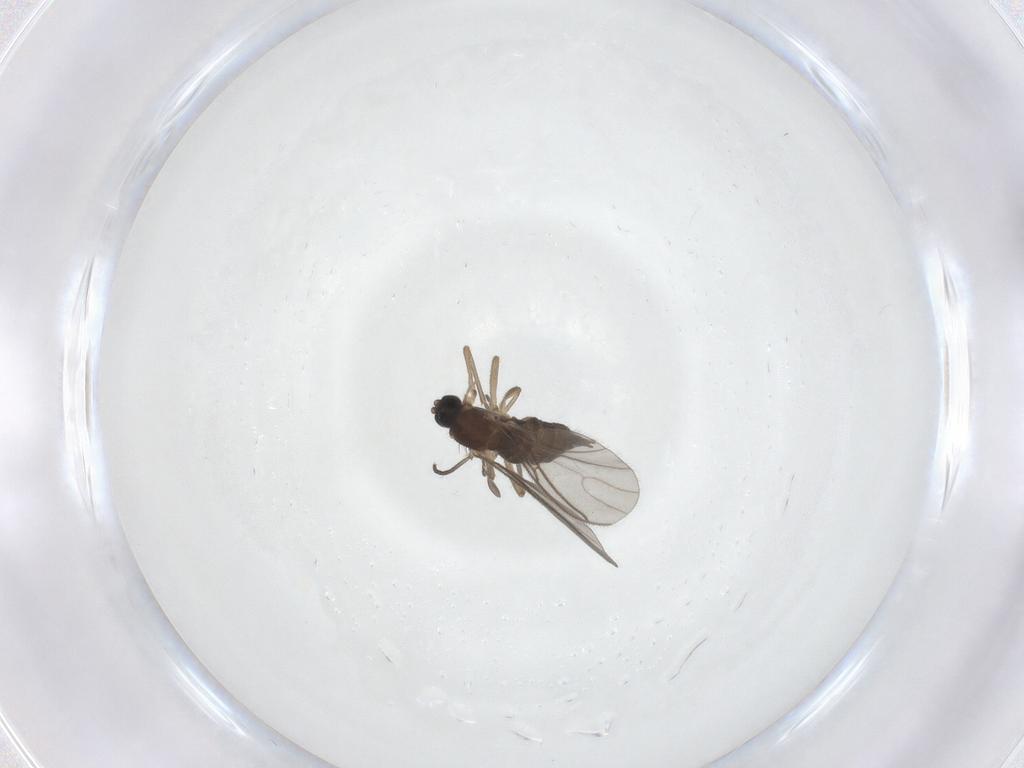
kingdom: Animalia
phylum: Arthropoda
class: Insecta
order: Diptera
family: Sciaridae
